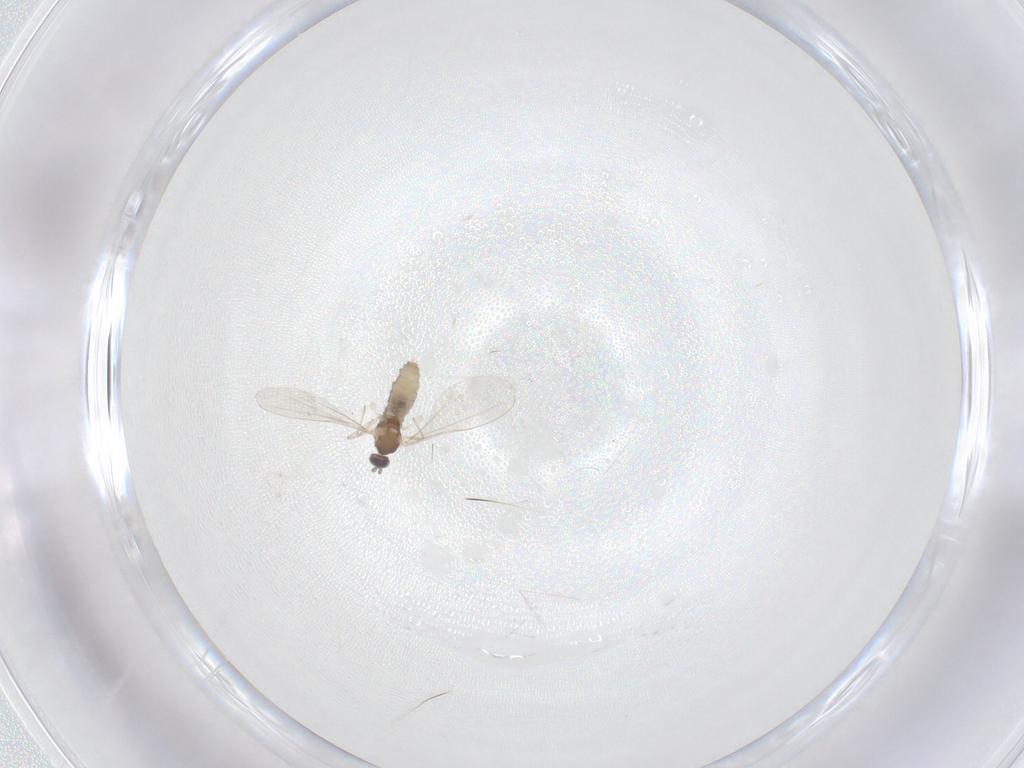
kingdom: Animalia
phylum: Arthropoda
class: Insecta
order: Diptera
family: Cecidomyiidae
